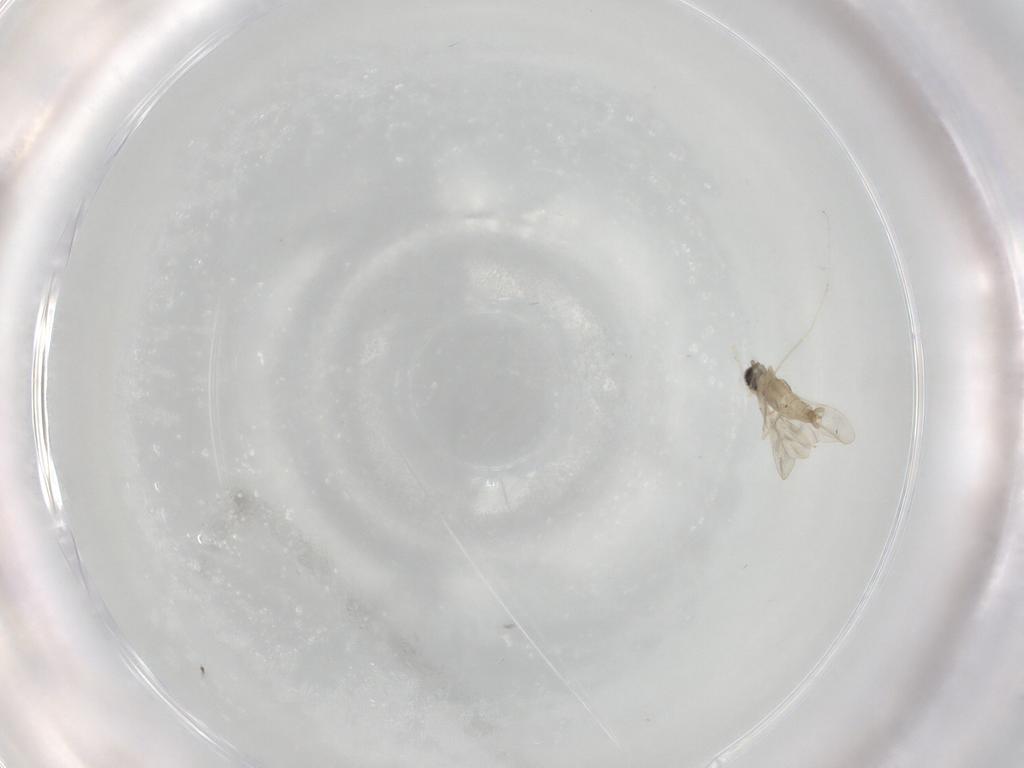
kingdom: Animalia
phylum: Arthropoda
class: Insecta
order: Diptera
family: Cecidomyiidae
